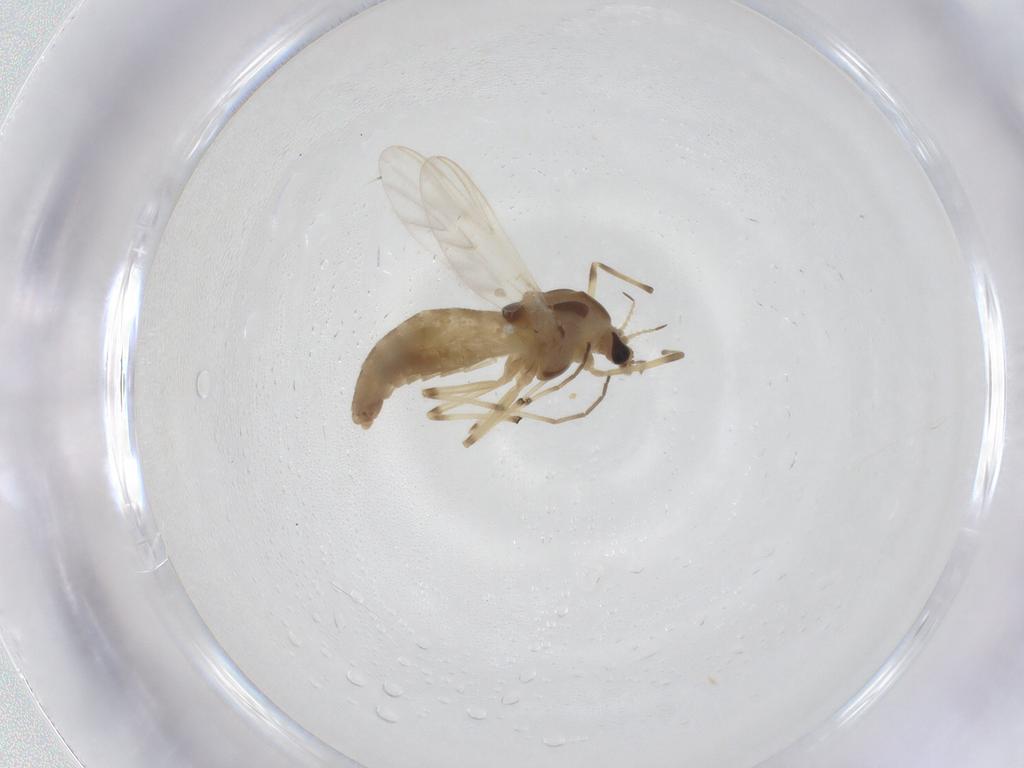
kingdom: Animalia
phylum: Arthropoda
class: Insecta
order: Diptera
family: Chironomidae
